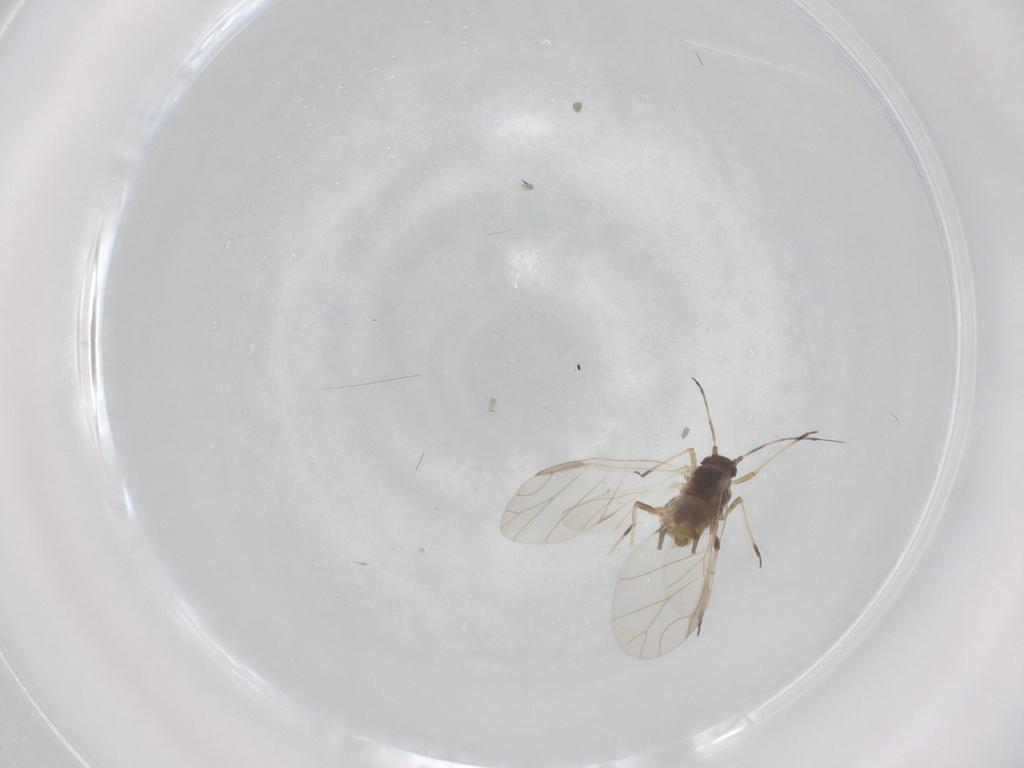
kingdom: Animalia
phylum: Arthropoda
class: Insecta
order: Hemiptera
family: Aphididae
